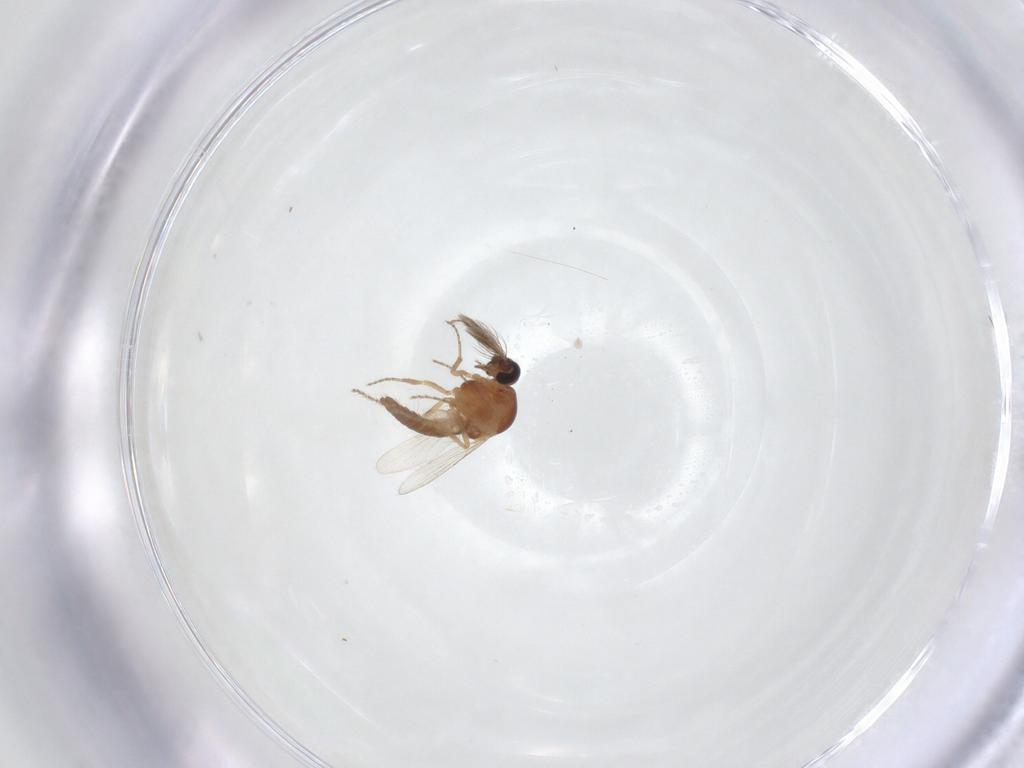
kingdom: Animalia
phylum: Arthropoda
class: Insecta
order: Diptera
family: Ceratopogonidae
